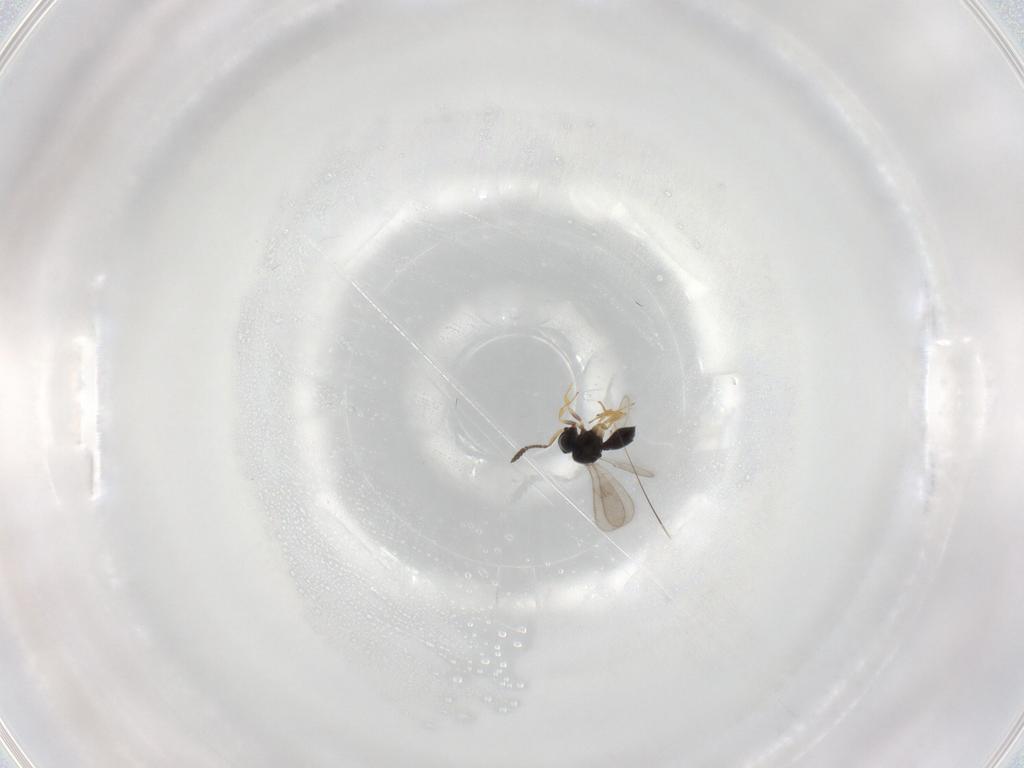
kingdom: Animalia
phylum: Arthropoda
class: Insecta
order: Hymenoptera
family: Scelionidae
